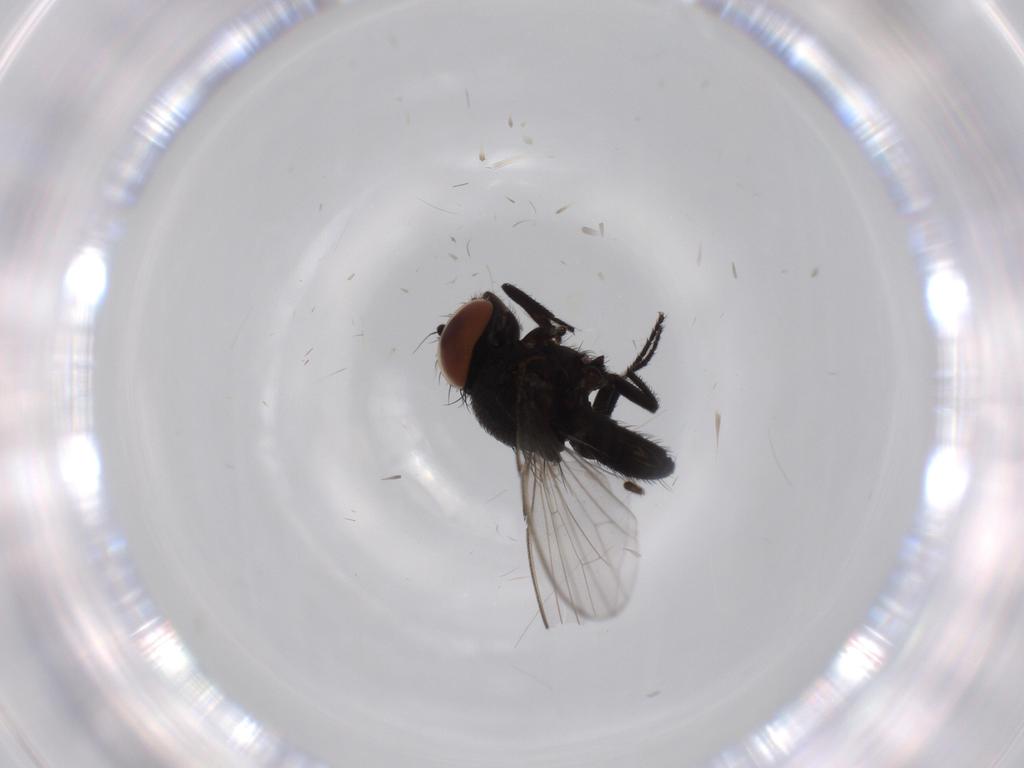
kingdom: Animalia
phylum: Arthropoda
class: Insecta
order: Diptera
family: Milichiidae
